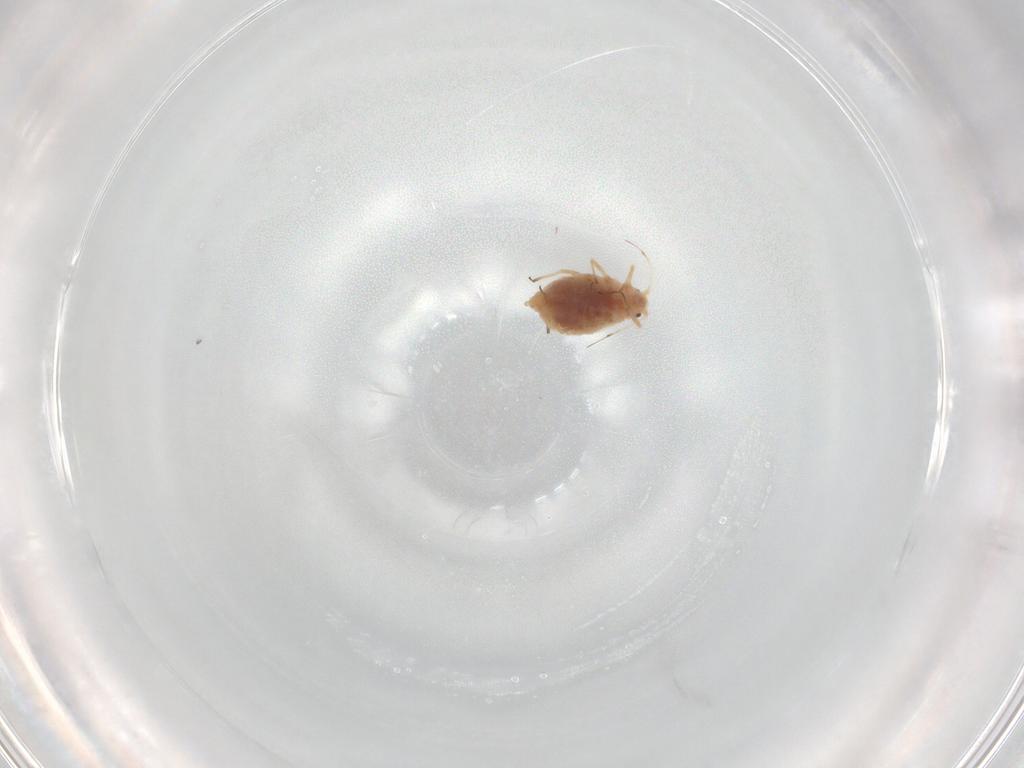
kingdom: Animalia
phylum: Arthropoda
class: Insecta
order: Hemiptera
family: Aphididae
